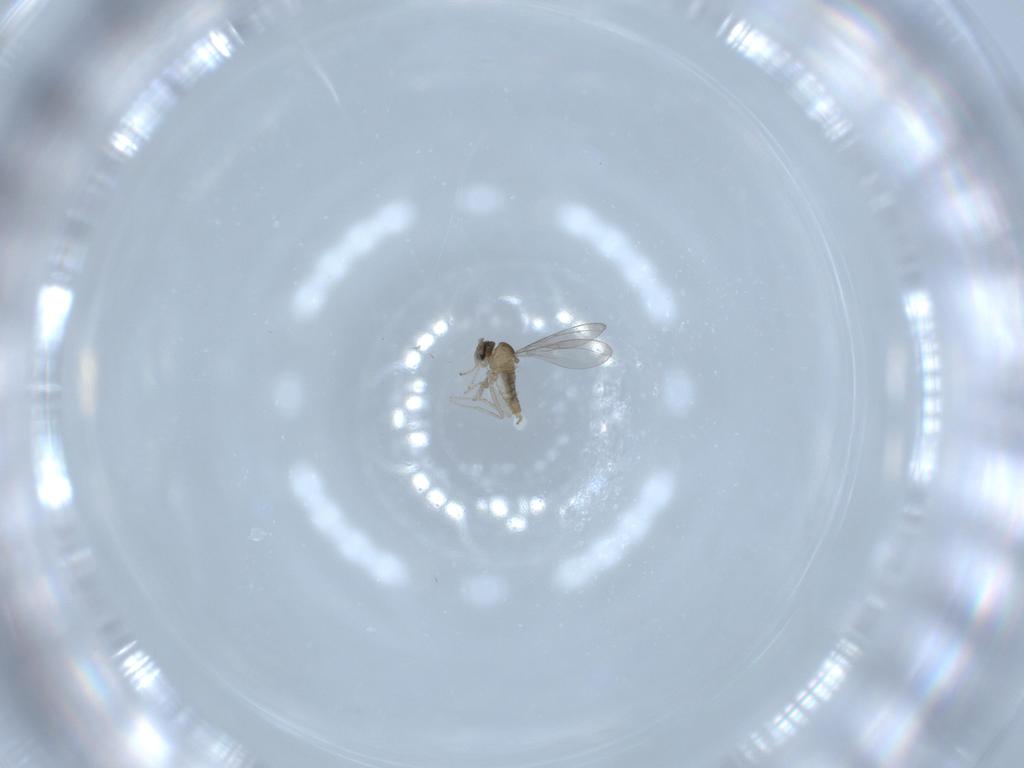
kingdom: Animalia
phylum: Arthropoda
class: Insecta
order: Diptera
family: Cecidomyiidae
